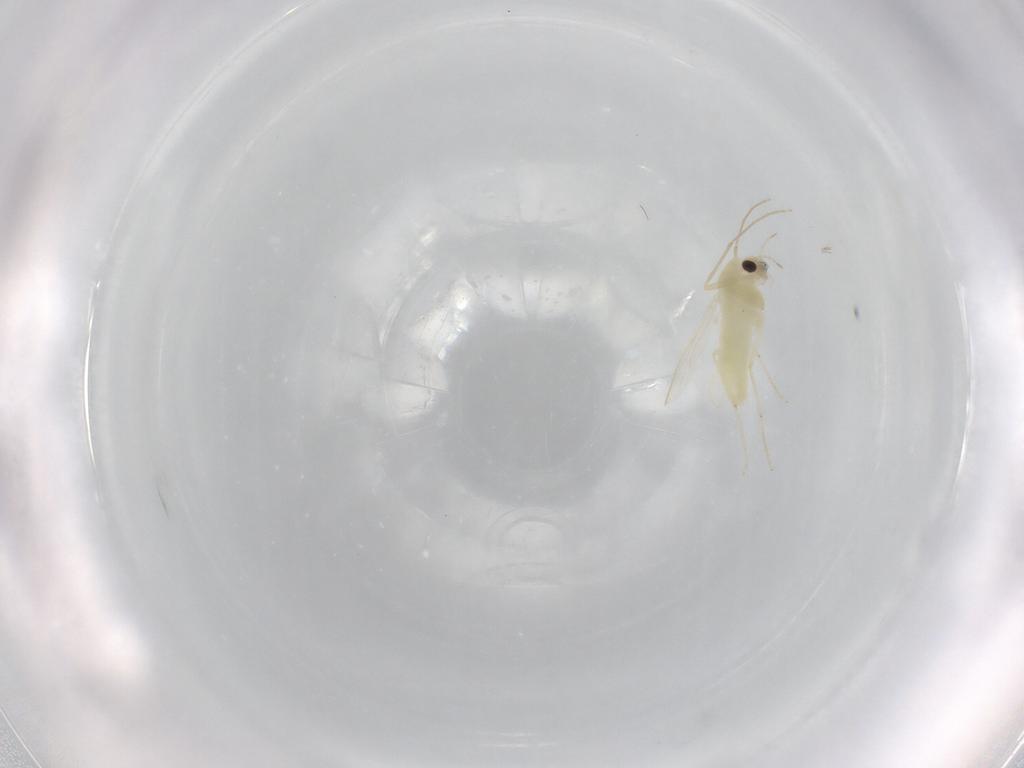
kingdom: Animalia
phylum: Arthropoda
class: Insecta
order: Diptera
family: Chironomidae
